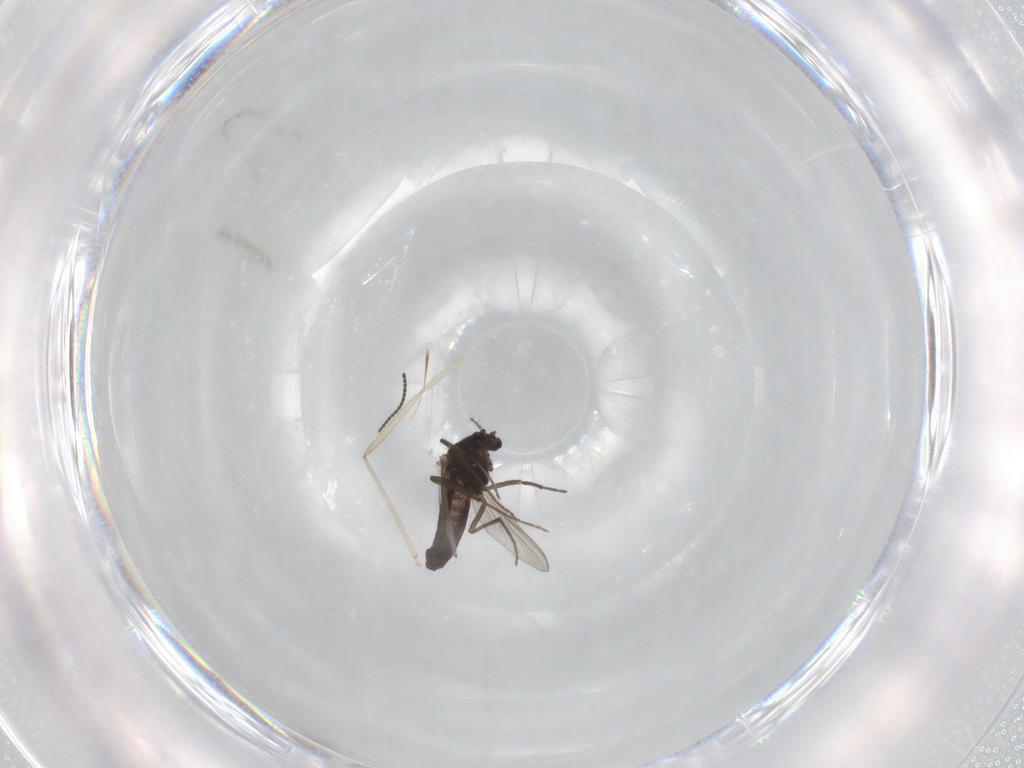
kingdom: Animalia
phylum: Arthropoda
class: Insecta
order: Diptera
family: Chironomidae
